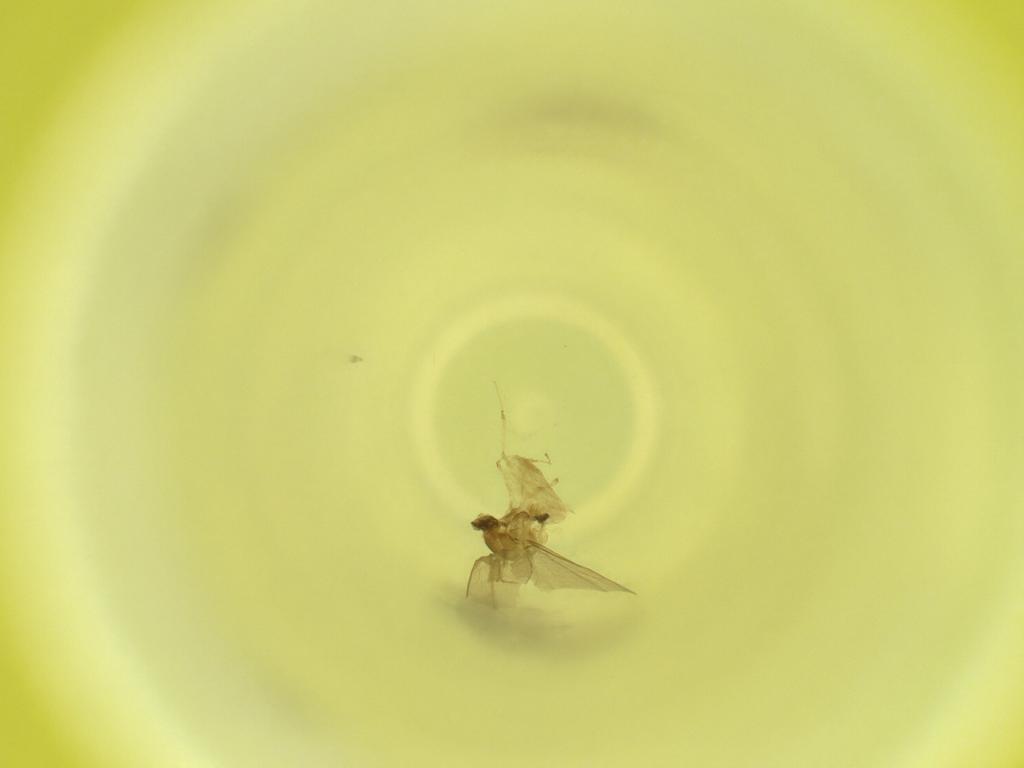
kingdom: Animalia
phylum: Arthropoda
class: Insecta
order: Diptera
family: Cecidomyiidae
